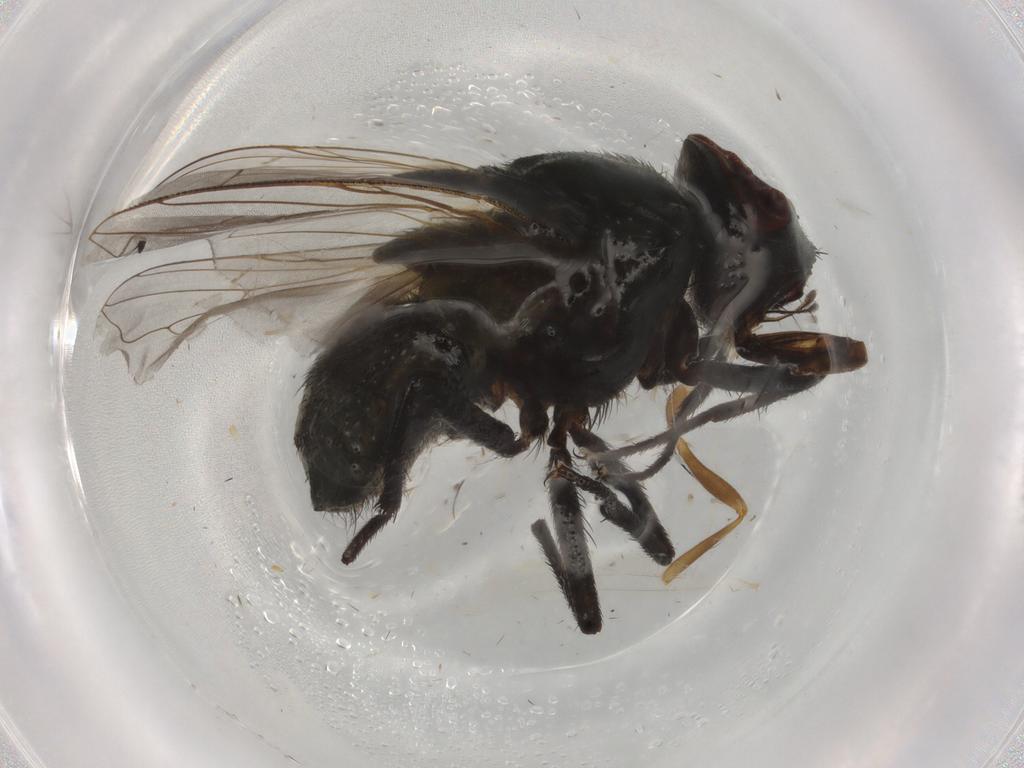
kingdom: Animalia
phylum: Arthropoda
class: Insecta
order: Diptera
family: Muscidae
